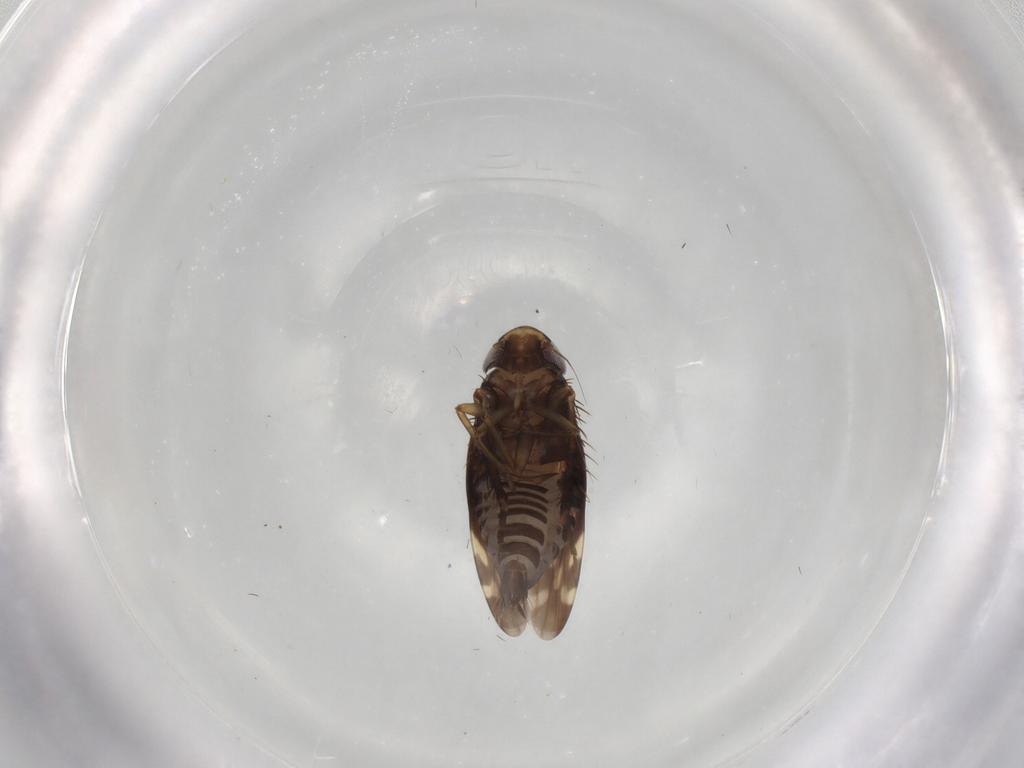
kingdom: Animalia
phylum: Arthropoda
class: Insecta
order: Hemiptera
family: Cicadellidae
